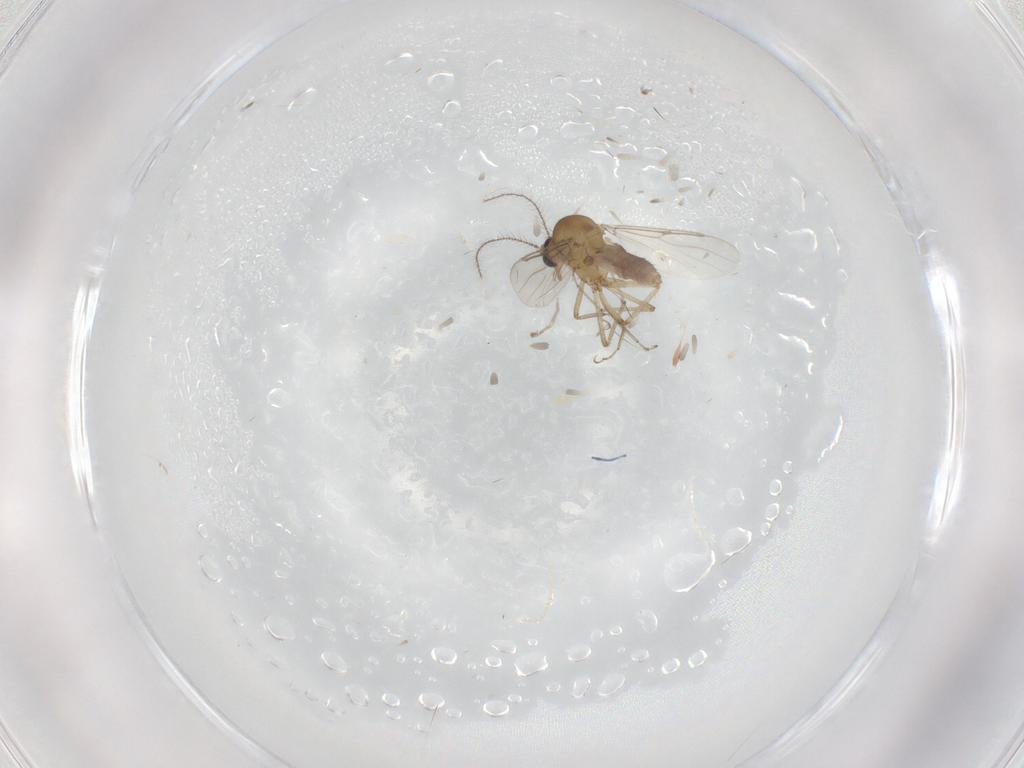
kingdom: Animalia
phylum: Arthropoda
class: Insecta
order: Diptera
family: Cecidomyiidae
